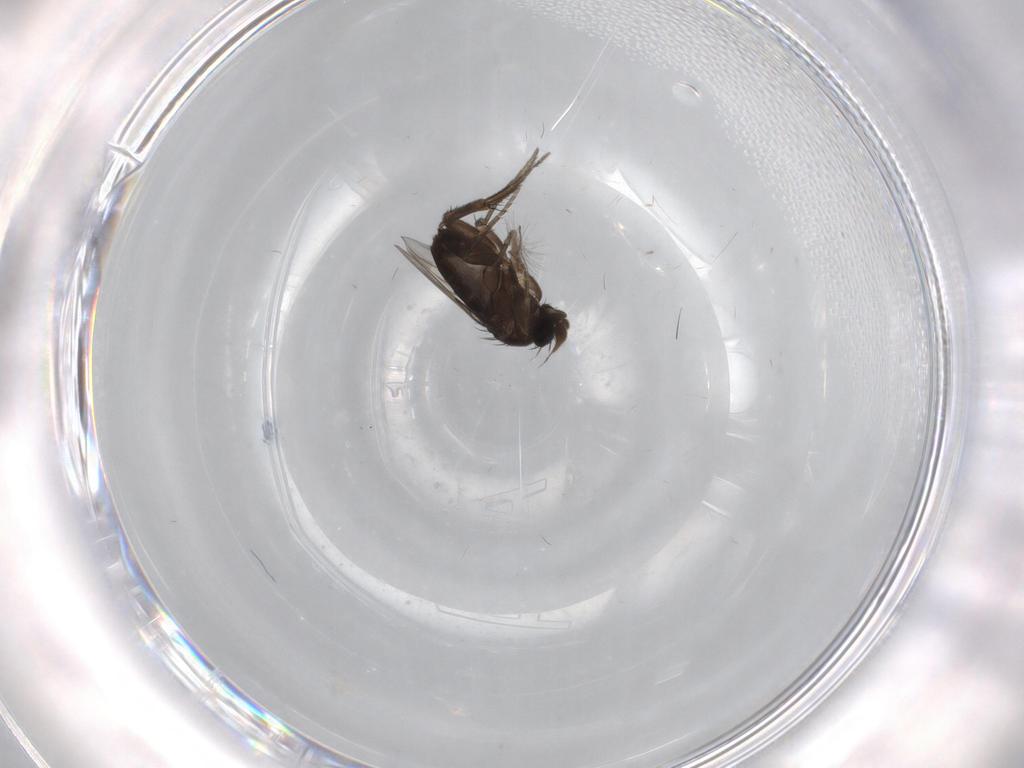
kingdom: Animalia
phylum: Arthropoda
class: Insecta
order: Diptera
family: Phoridae
